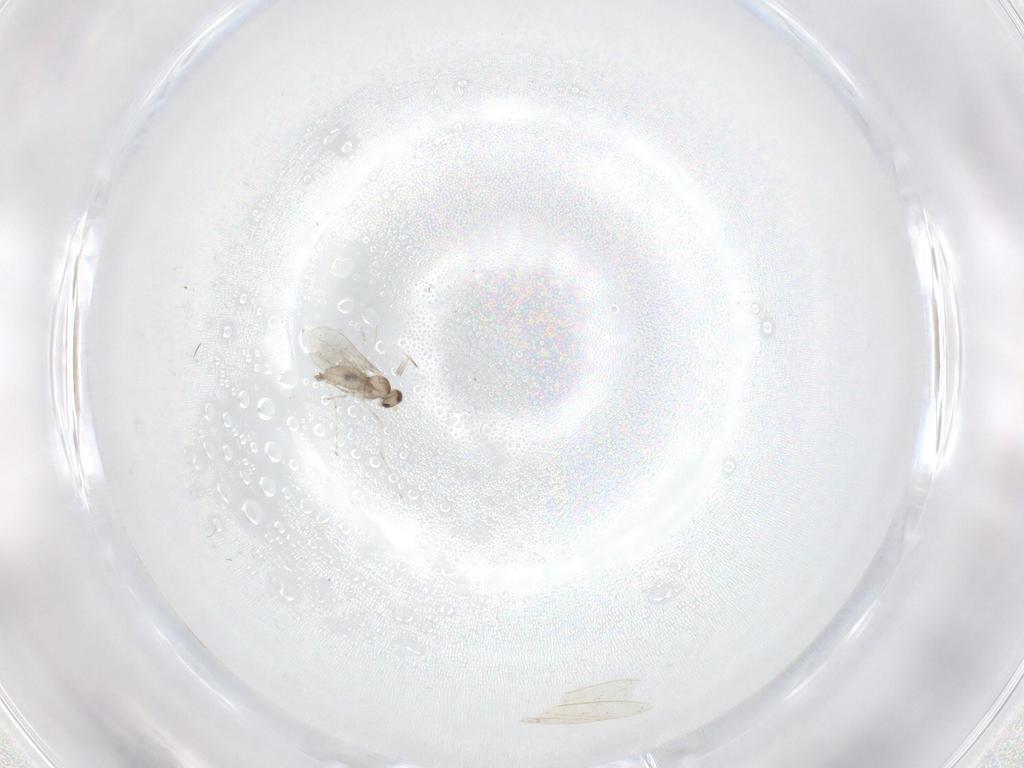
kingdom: Animalia
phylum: Arthropoda
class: Insecta
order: Diptera
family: Cecidomyiidae
